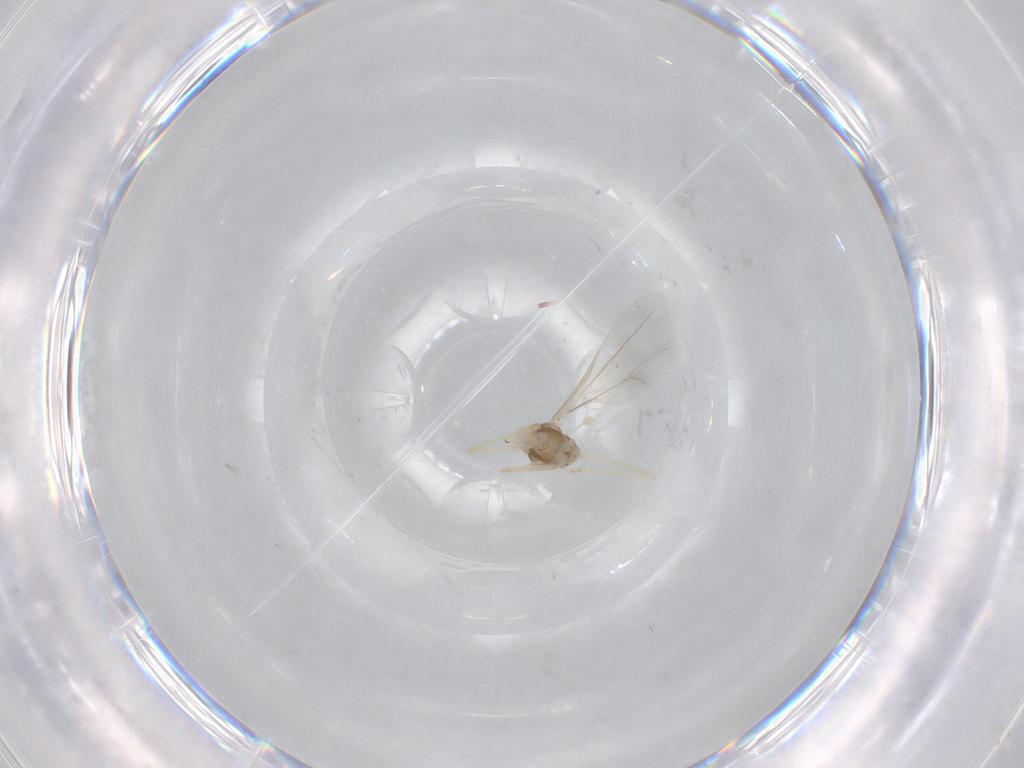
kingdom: Animalia
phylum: Arthropoda
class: Insecta
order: Diptera
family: Cecidomyiidae
